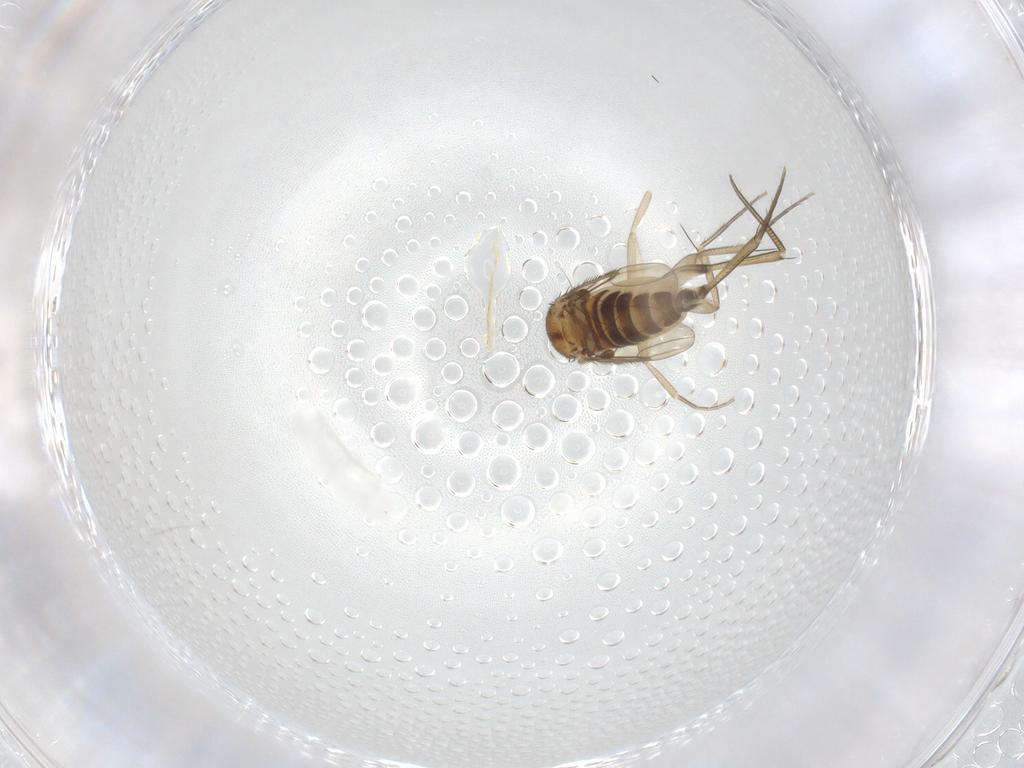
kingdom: Animalia
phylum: Arthropoda
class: Insecta
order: Diptera
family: Phoridae
